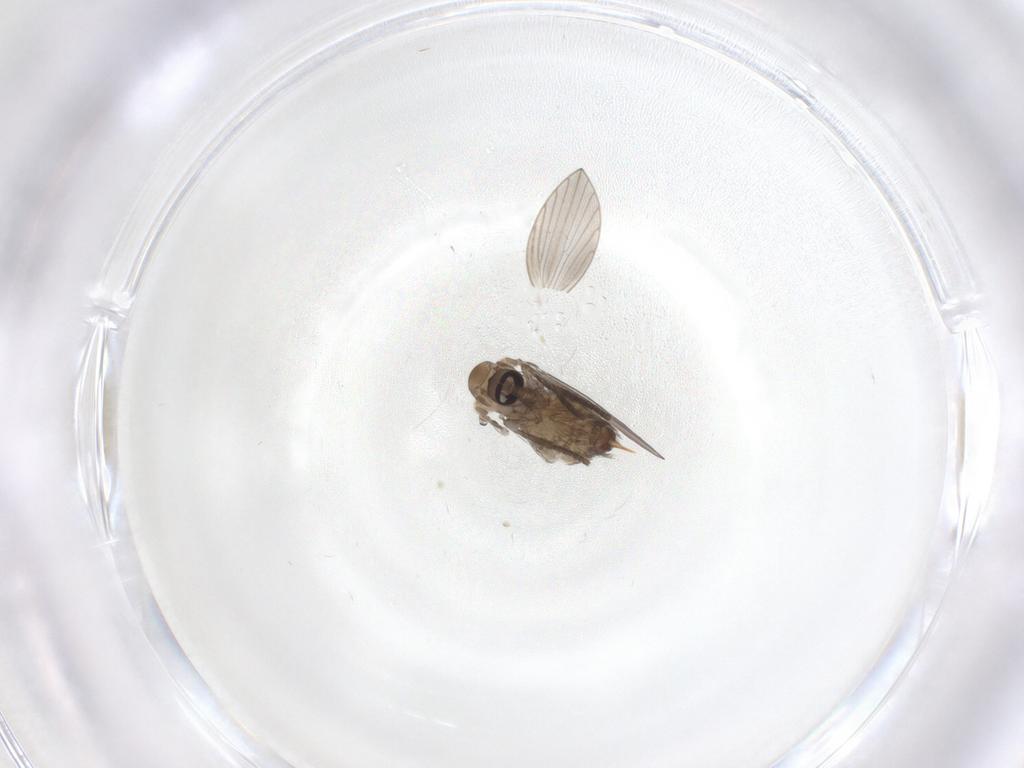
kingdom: Animalia
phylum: Arthropoda
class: Insecta
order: Diptera
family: Psychodidae
